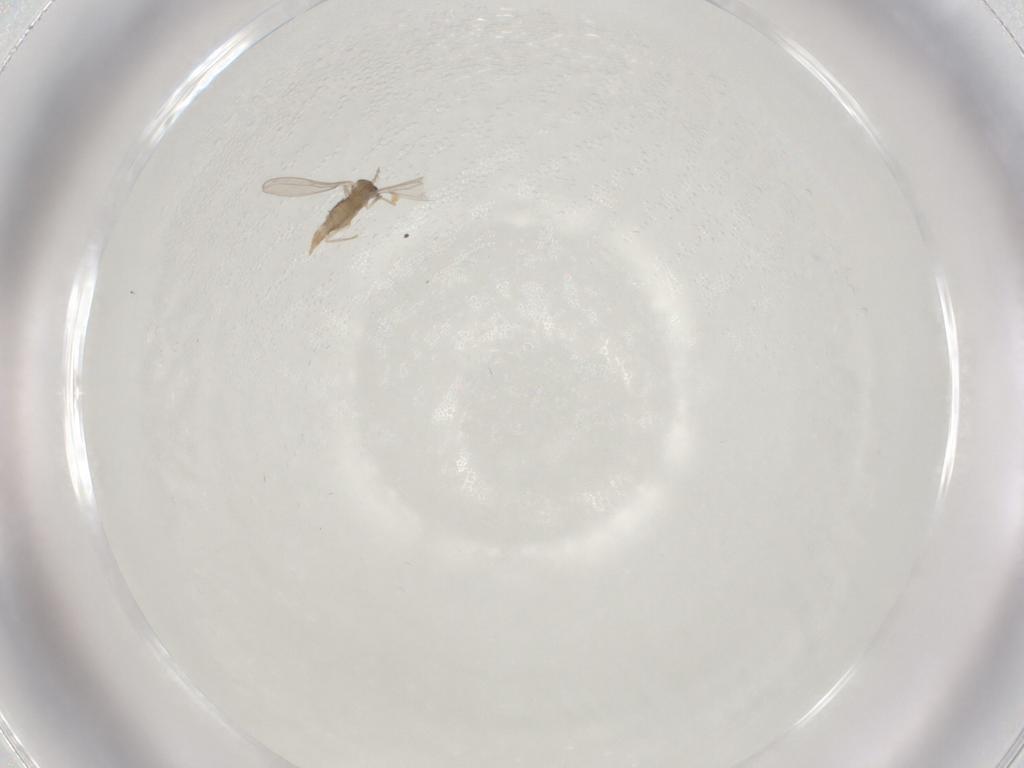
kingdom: Animalia
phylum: Arthropoda
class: Insecta
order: Diptera
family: Cecidomyiidae
